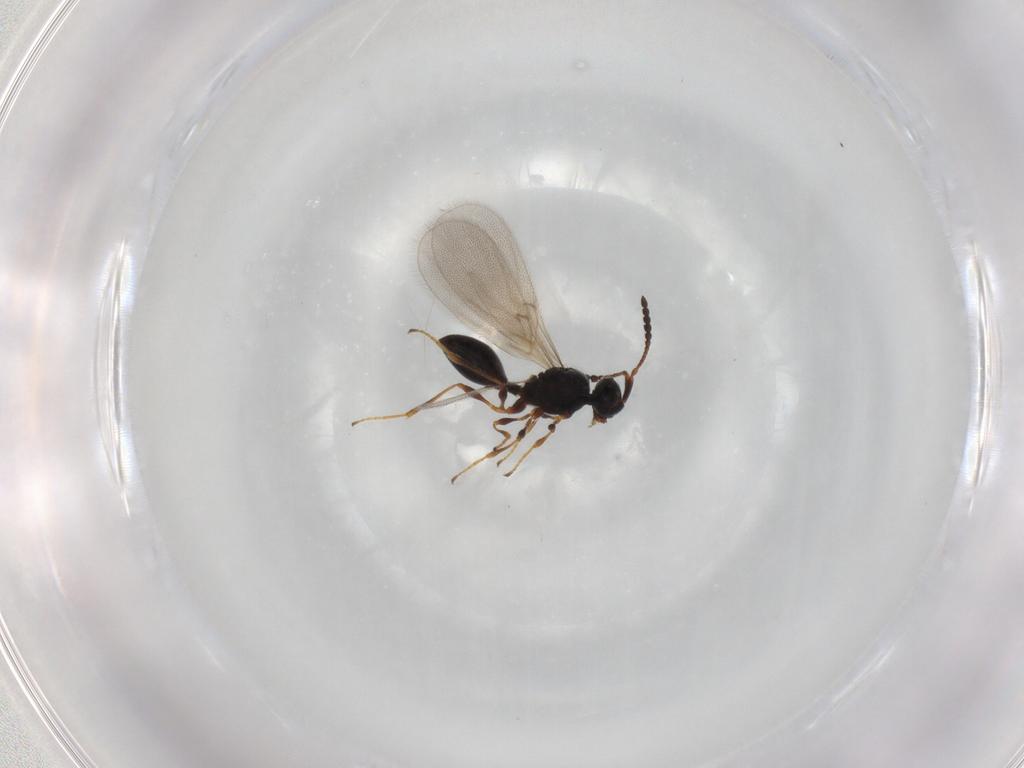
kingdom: Animalia
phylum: Arthropoda
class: Insecta
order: Hymenoptera
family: Diapriidae
